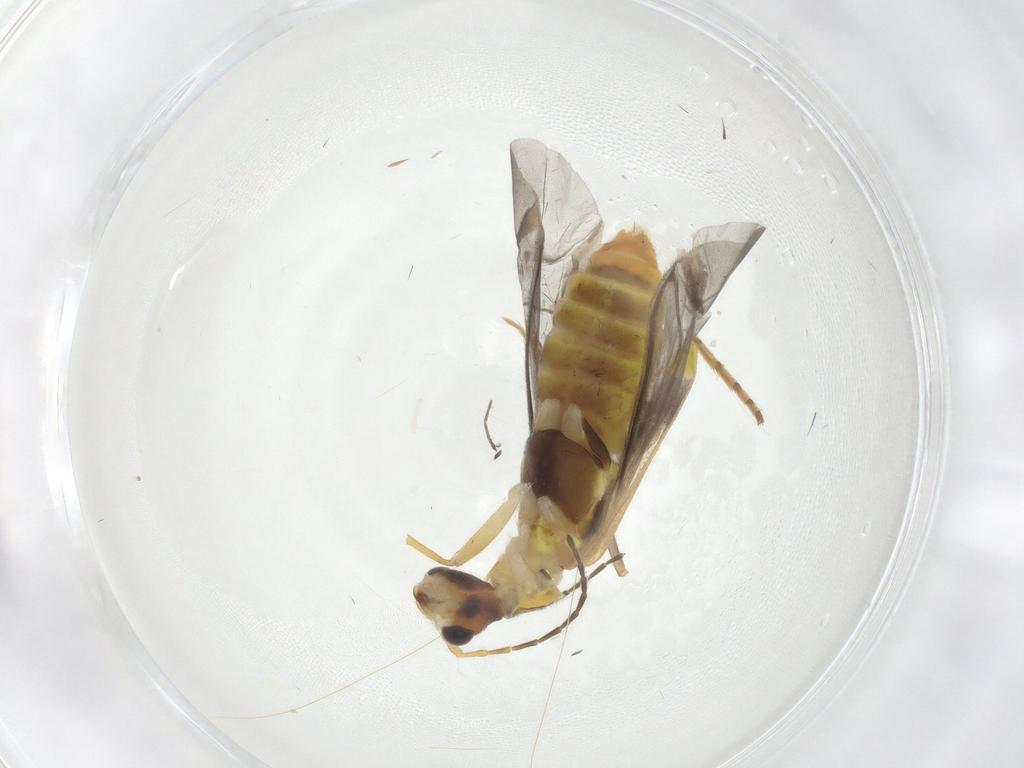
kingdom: Animalia
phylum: Arthropoda
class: Insecta
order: Coleoptera
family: Cantharidae
